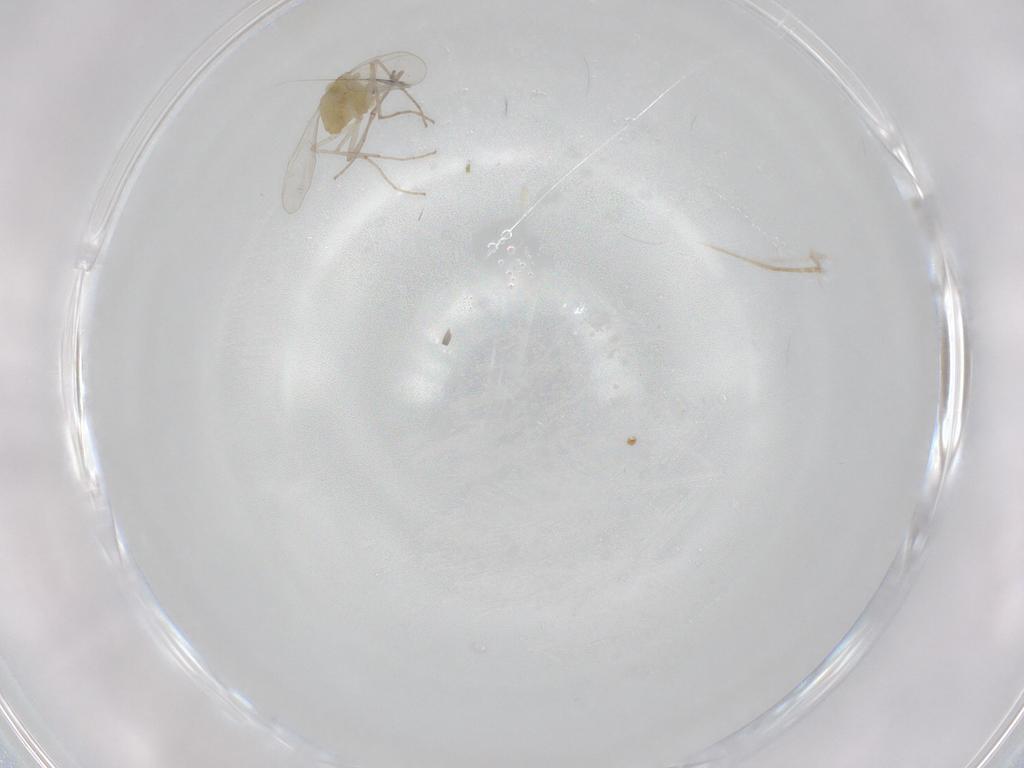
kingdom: Animalia
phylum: Arthropoda
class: Insecta
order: Diptera
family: Chironomidae
